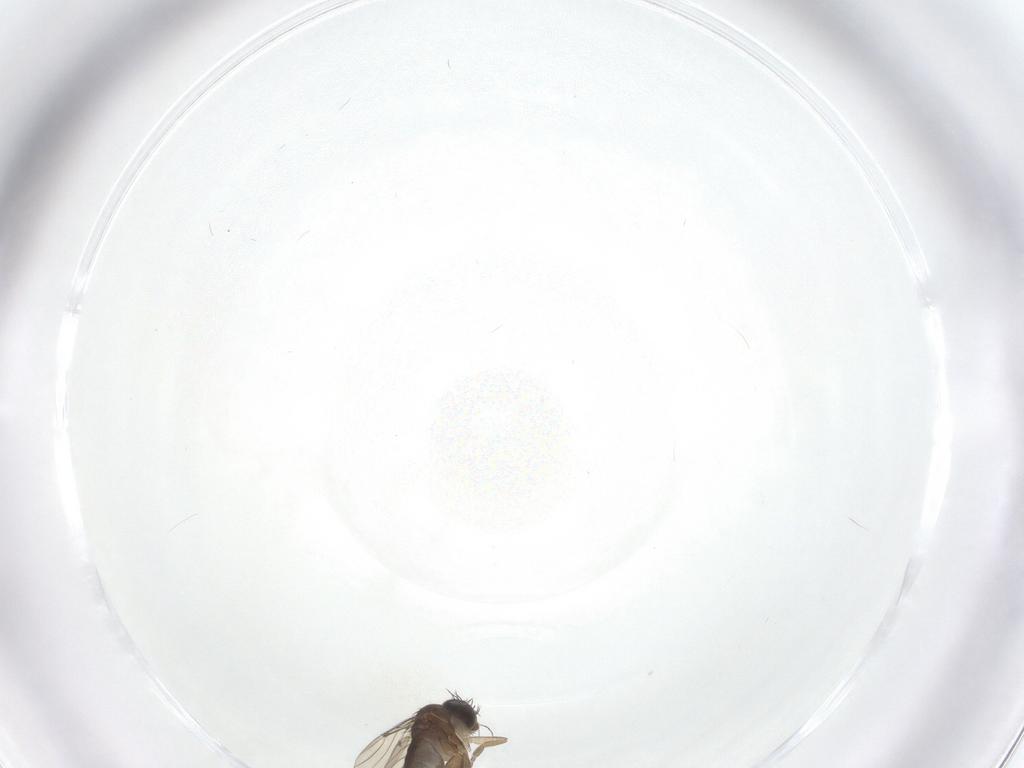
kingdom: Animalia
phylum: Arthropoda
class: Insecta
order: Diptera
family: Phoridae
